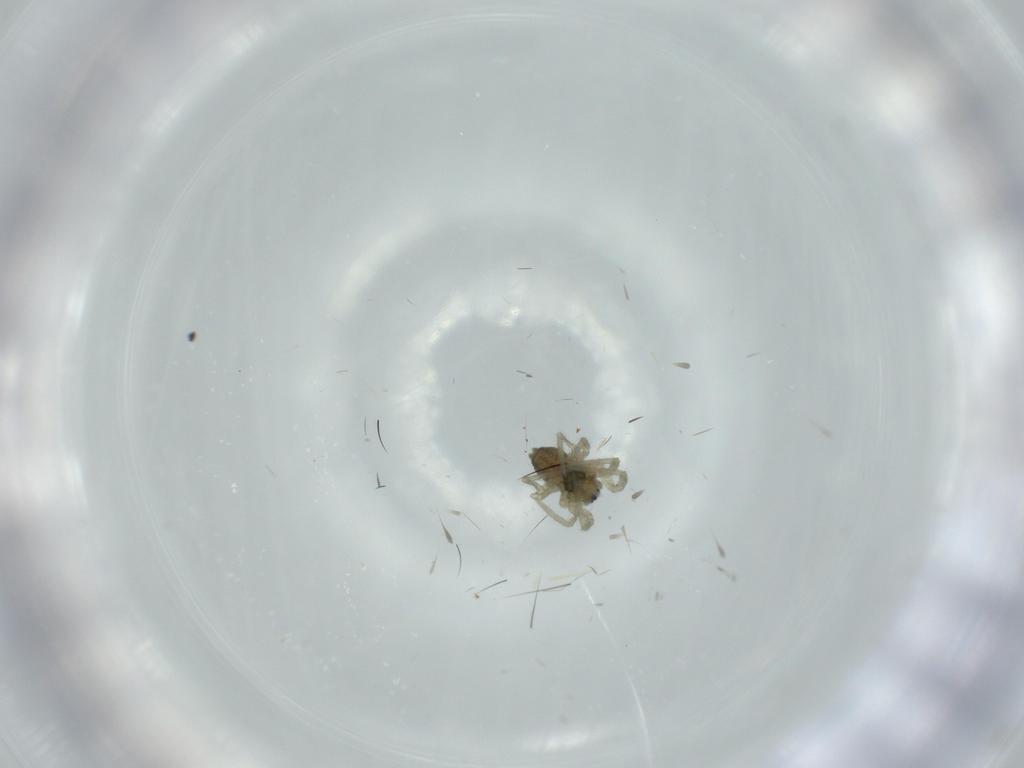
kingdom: Animalia
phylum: Arthropoda
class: Arachnida
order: Araneae
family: Linyphiidae
